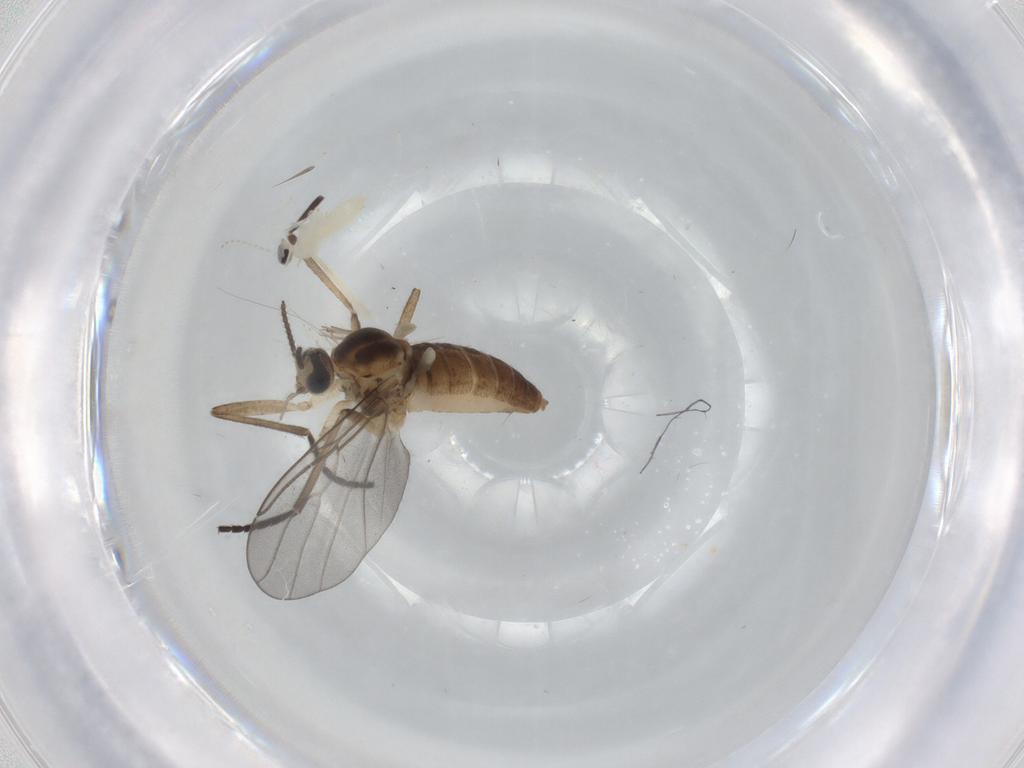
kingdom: Animalia
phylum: Arthropoda
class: Insecta
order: Diptera
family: Cecidomyiidae
